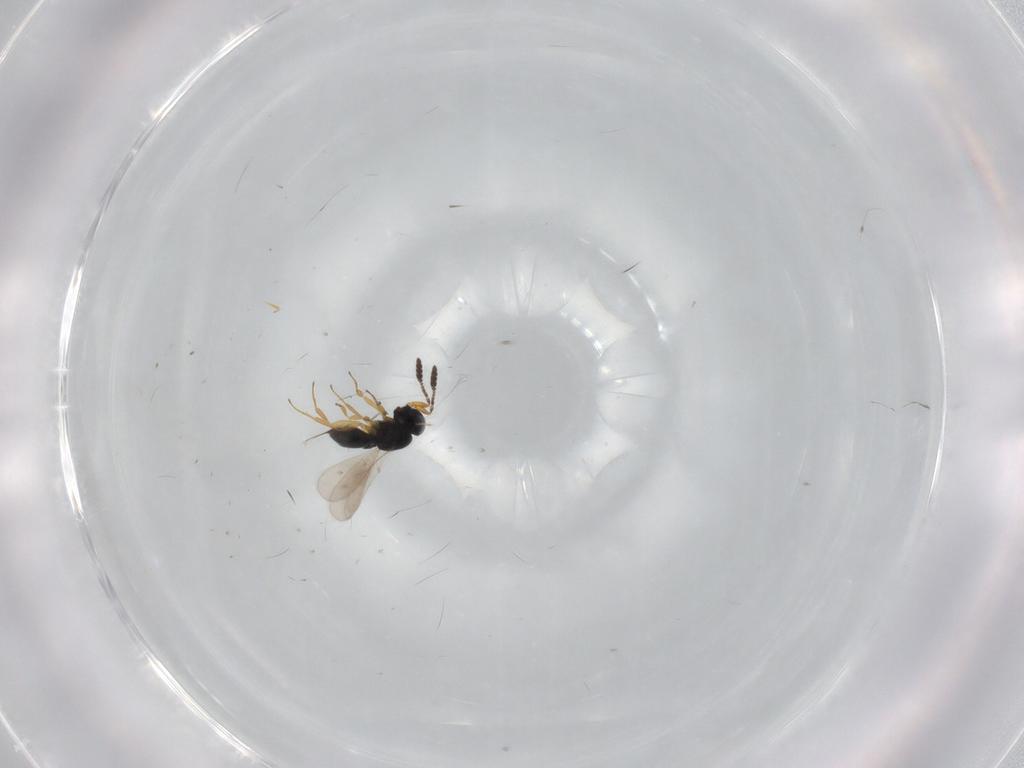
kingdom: Animalia
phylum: Arthropoda
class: Insecta
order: Hymenoptera
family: Scelionidae
